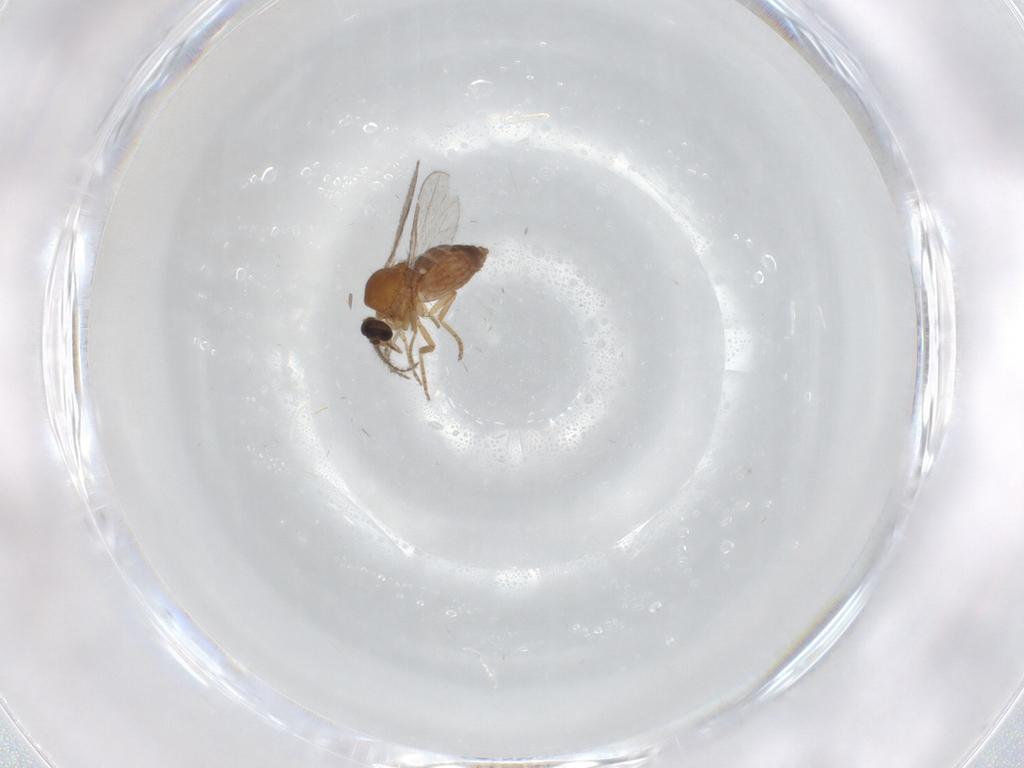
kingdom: Animalia
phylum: Arthropoda
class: Insecta
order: Diptera
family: Ceratopogonidae
